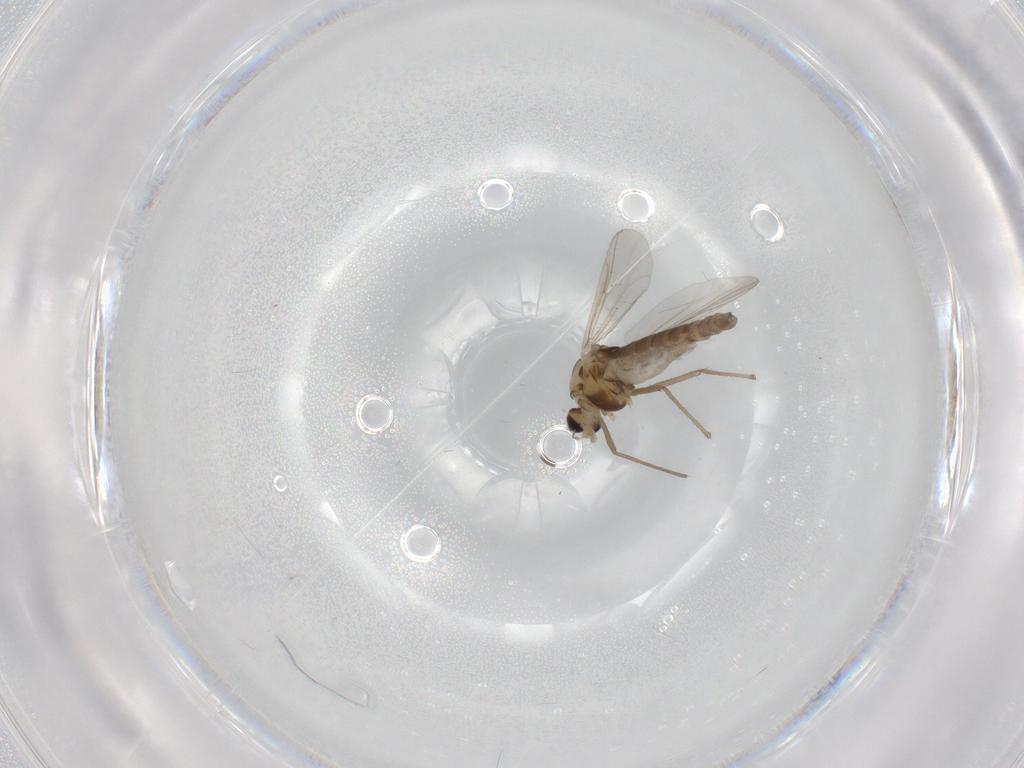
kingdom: Animalia
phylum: Arthropoda
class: Insecta
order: Diptera
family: Chironomidae
